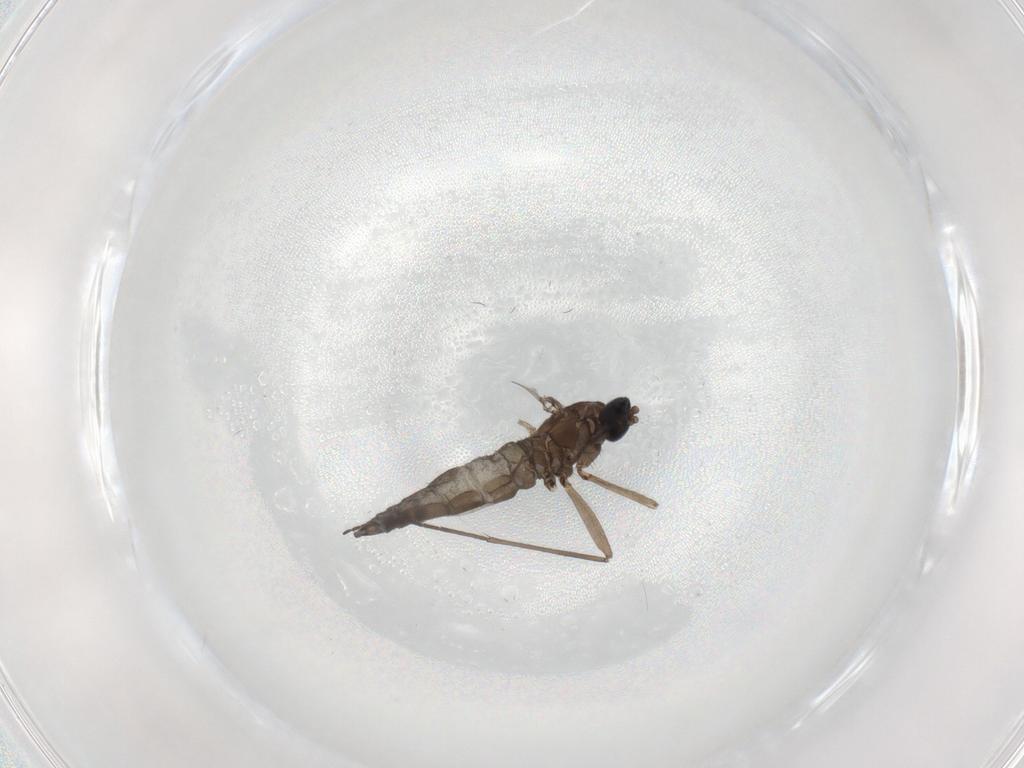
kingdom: Animalia
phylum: Arthropoda
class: Insecta
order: Diptera
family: Sciaridae
